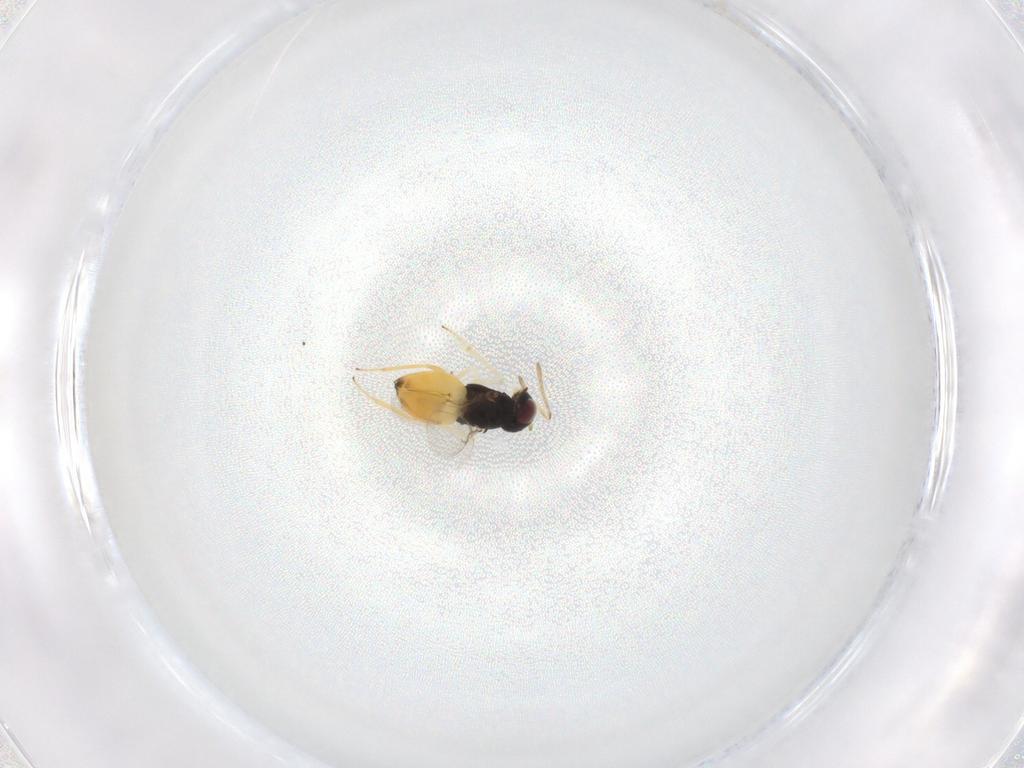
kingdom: Animalia
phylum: Arthropoda
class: Insecta
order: Hymenoptera
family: Encyrtidae
